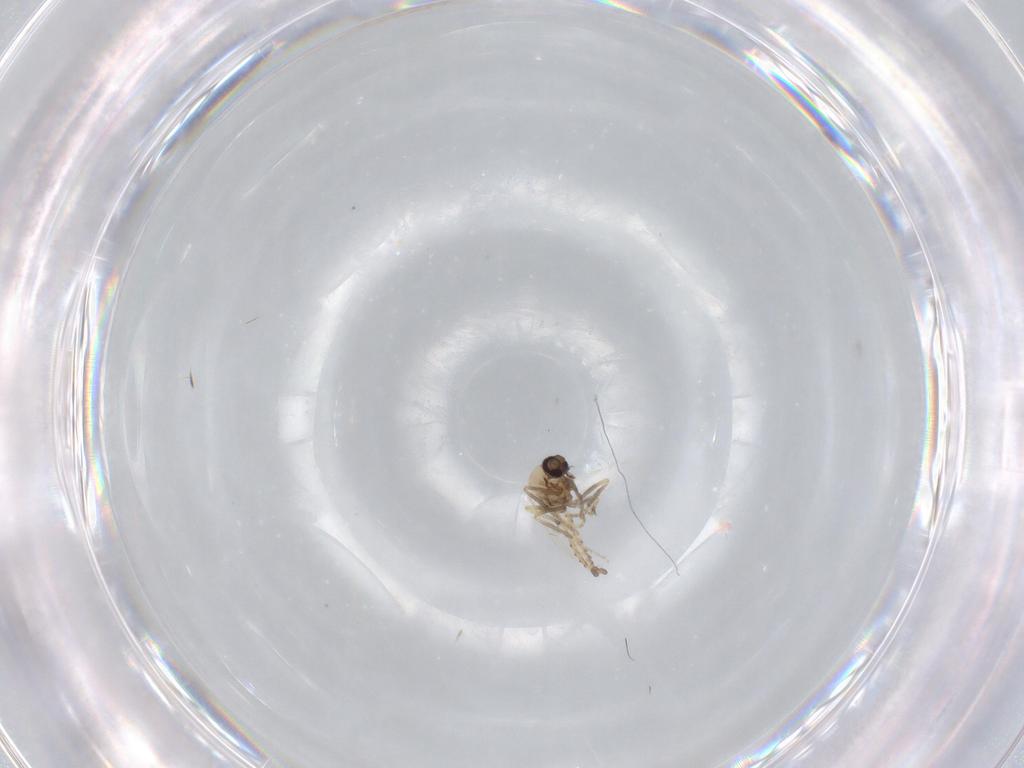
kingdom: Animalia
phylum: Arthropoda
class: Insecta
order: Diptera
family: Ceratopogonidae
